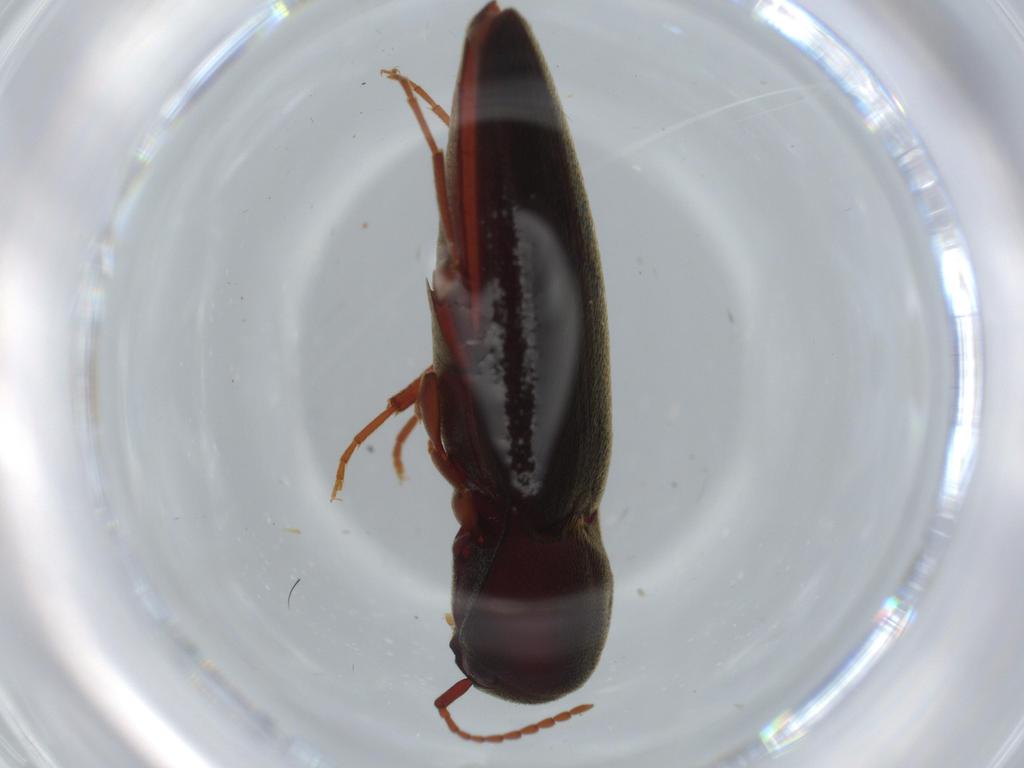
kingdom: Animalia
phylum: Arthropoda
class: Insecta
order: Coleoptera
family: Eucnemidae
